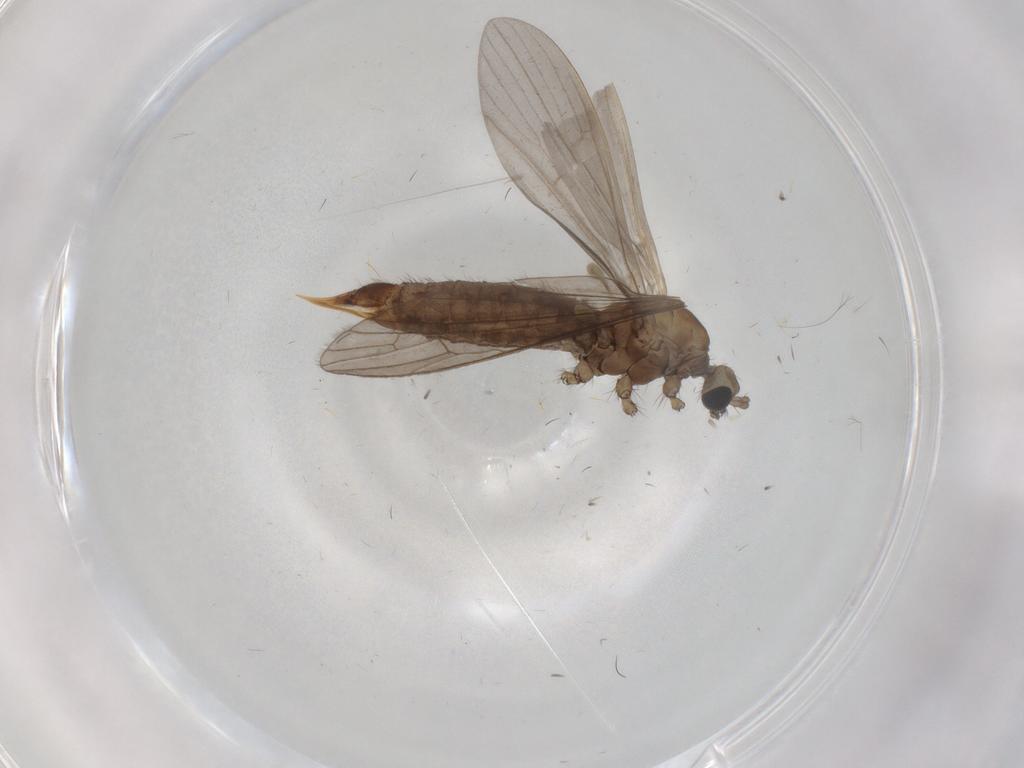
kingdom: Animalia
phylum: Arthropoda
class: Insecta
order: Diptera
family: Limoniidae
